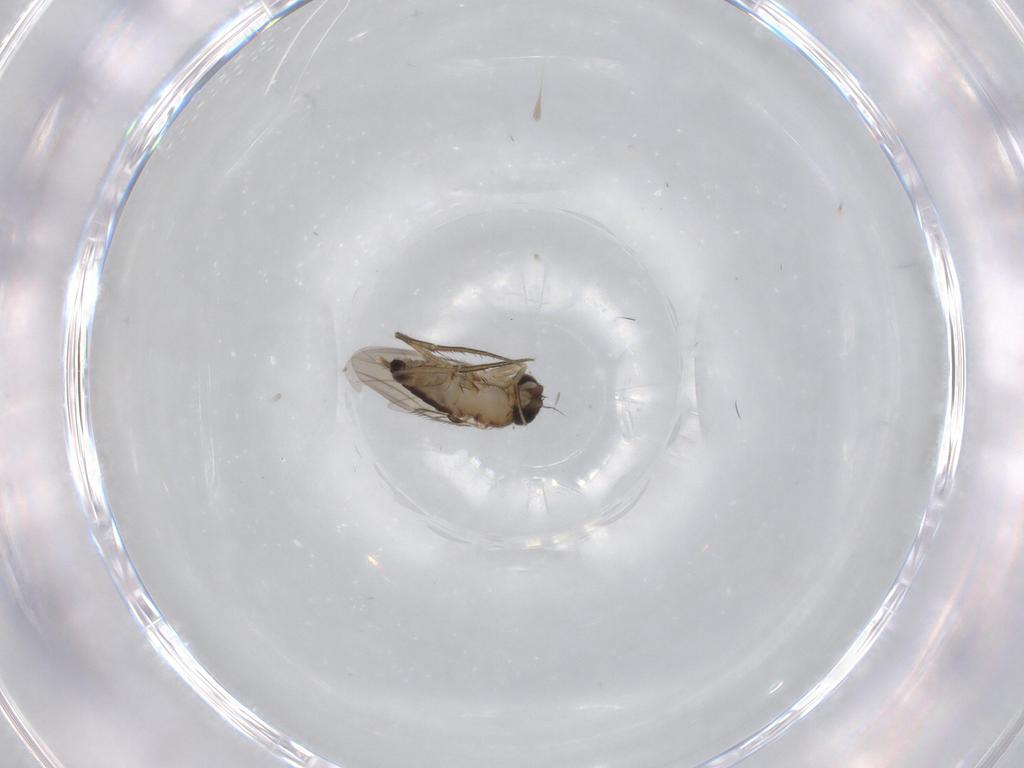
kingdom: Animalia
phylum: Arthropoda
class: Insecta
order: Diptera
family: Phoridae
